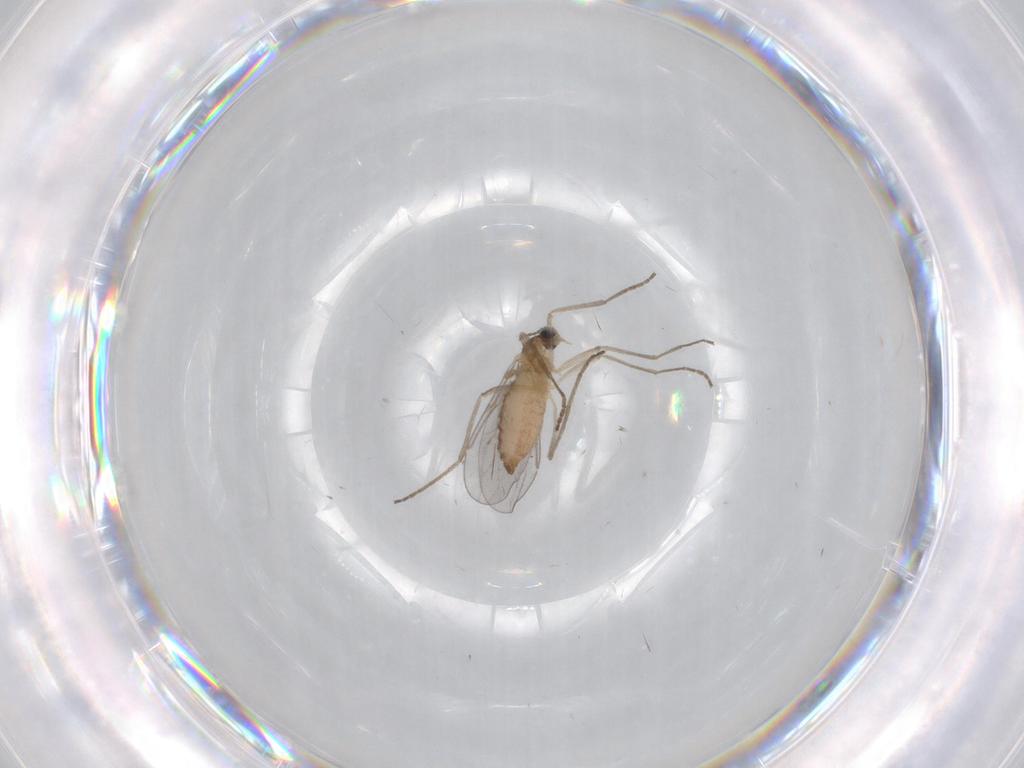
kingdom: Animalia
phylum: Arthropoda
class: Insecta
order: Diptera
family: Cecidomyiidae
